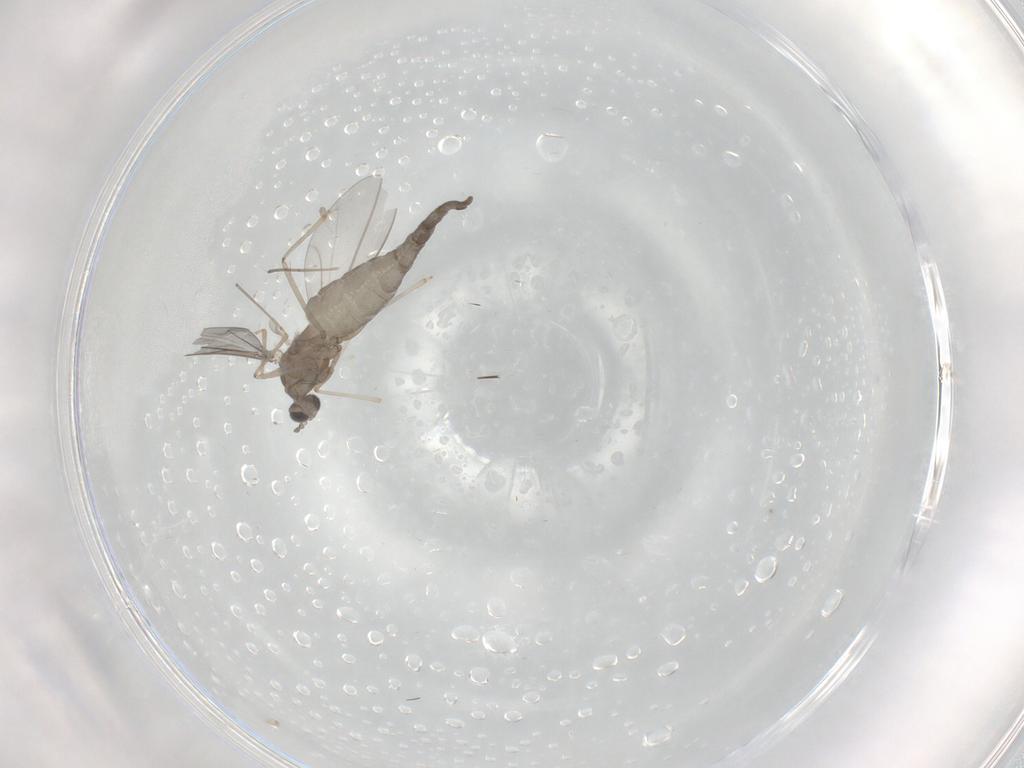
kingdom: Animalia
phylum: Arthropoda
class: Insecta
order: Diptera
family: Cecidomyiidae
